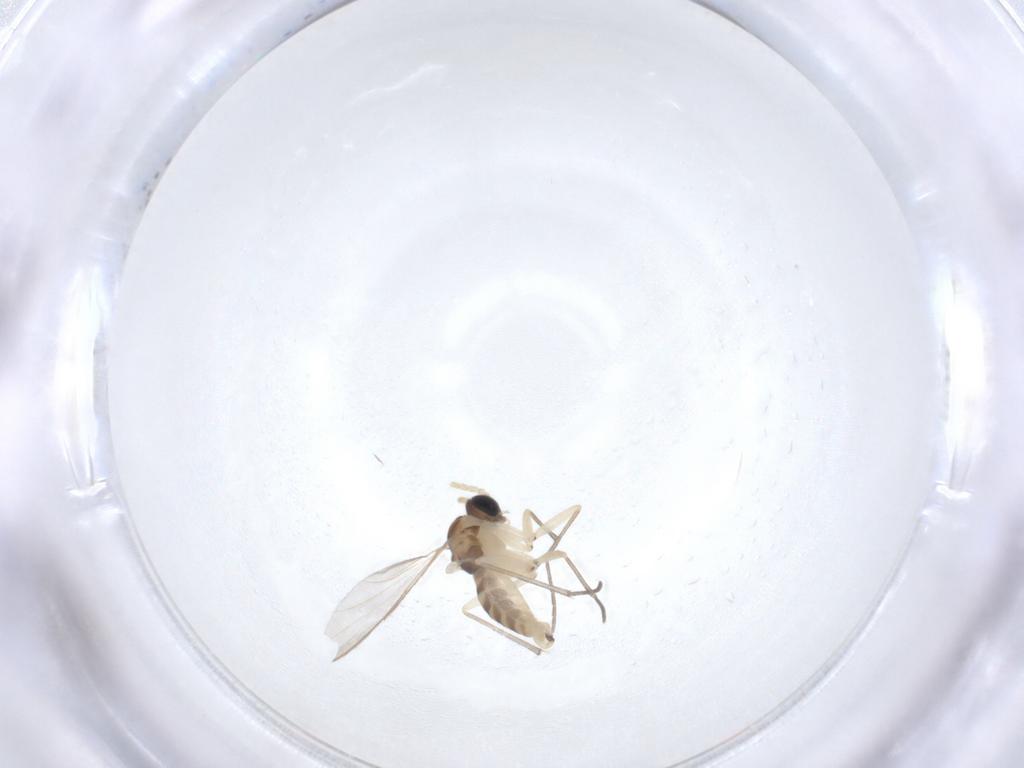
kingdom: Animalia
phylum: Arthropoda
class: Insecta
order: Diptera
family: Sciaridae
